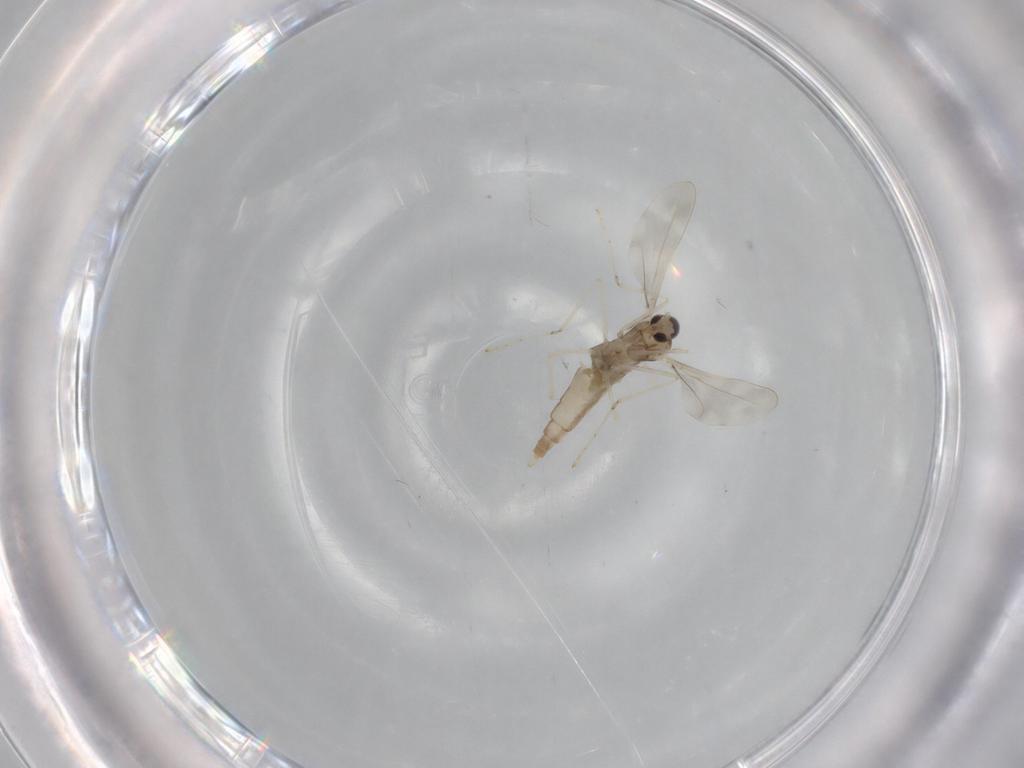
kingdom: Animalia
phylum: Arthropoda
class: Insecta
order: Diptera
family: Cecidomyiidae
